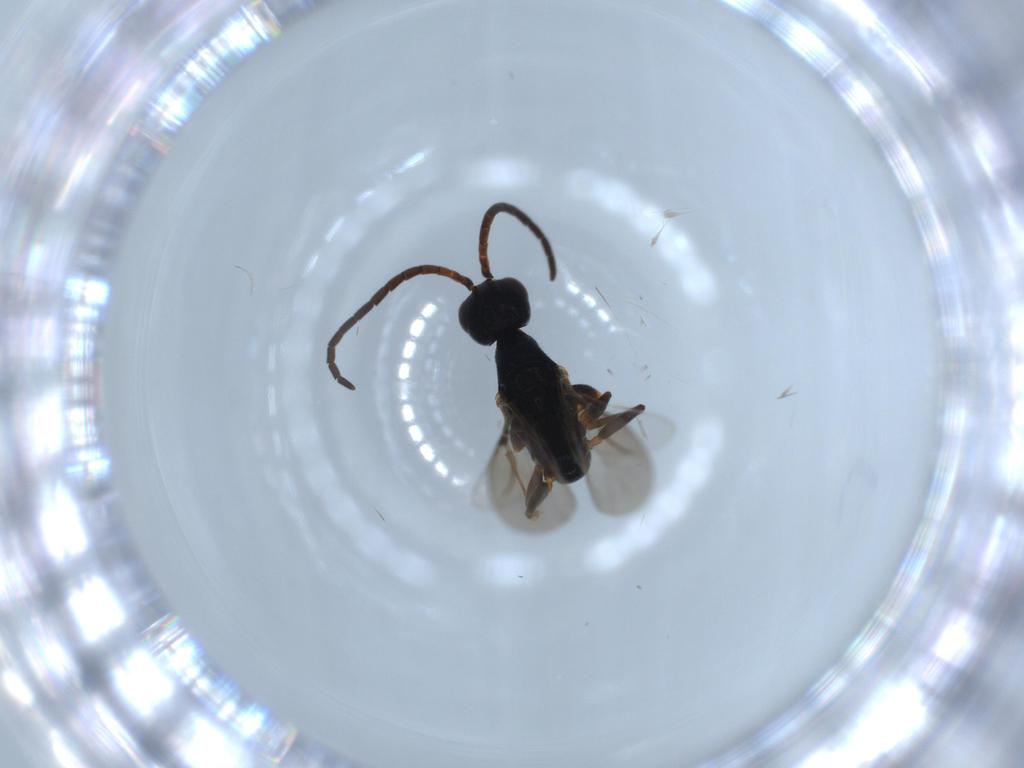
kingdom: Animalia
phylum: Arthropoda
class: Insecta
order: Hymenoptera
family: Bethylidae
